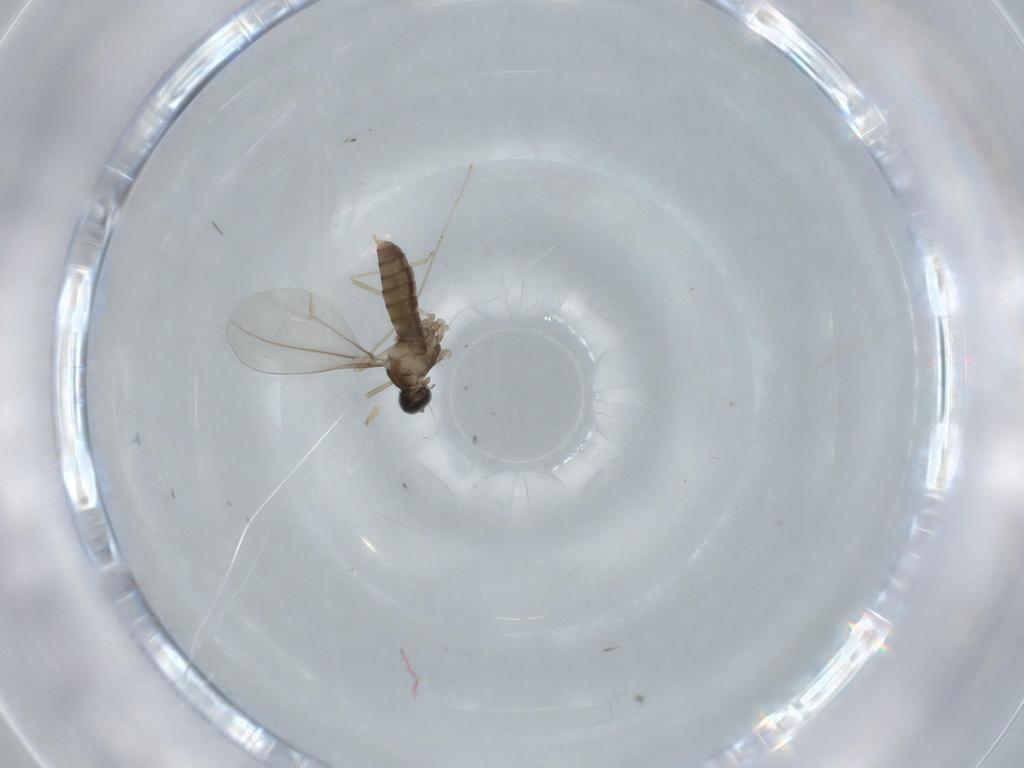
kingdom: Animalia
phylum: Arthropoda
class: Insecta
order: Diptera
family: Cecidomyiidae
